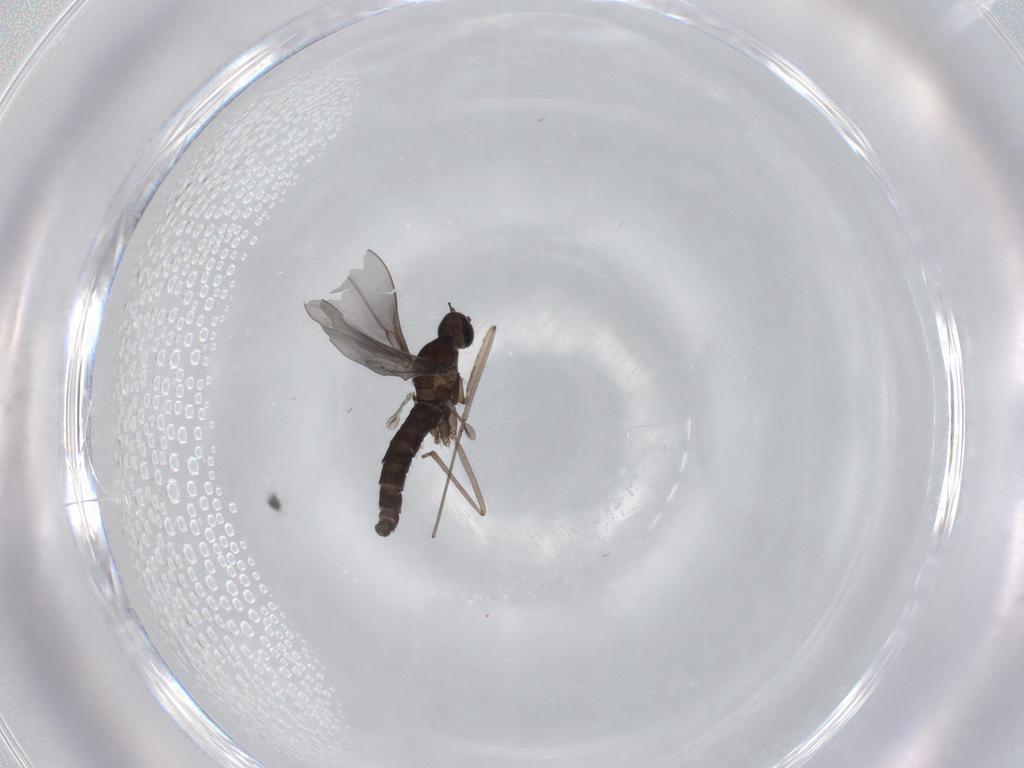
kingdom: Animalia
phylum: Arthropoda
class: Insecta
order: Diptera
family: Cecidomyiidae
